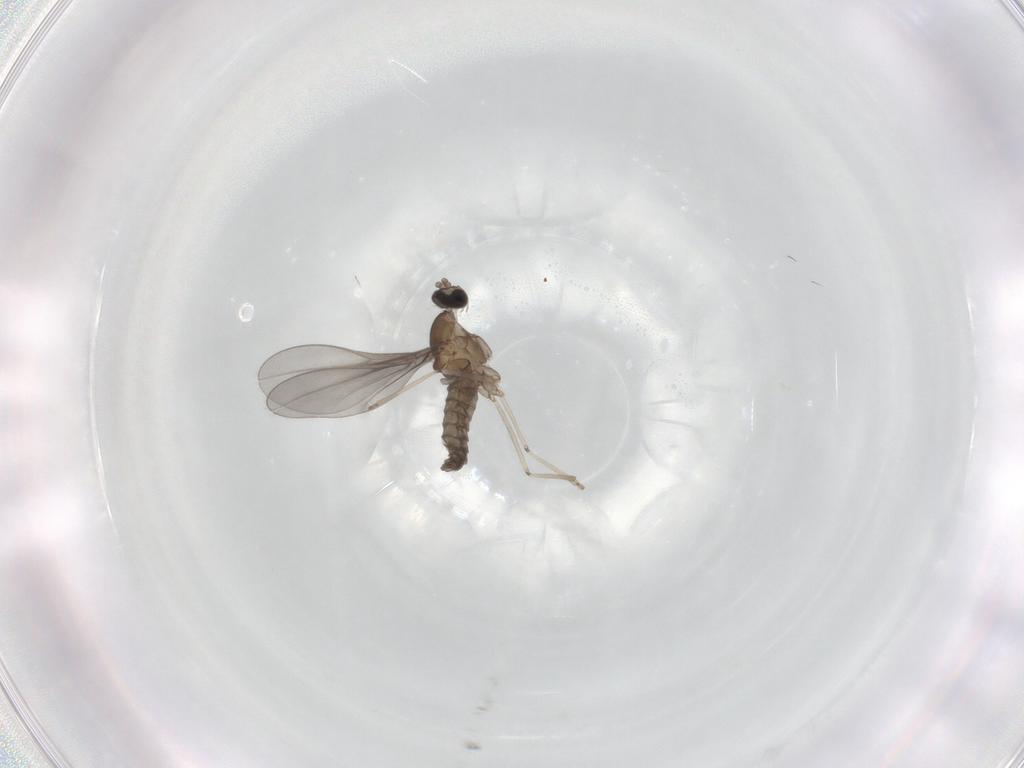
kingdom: Animalia
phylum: Arthropoda
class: Insecta
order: Diptera
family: Cecidomyiidae
